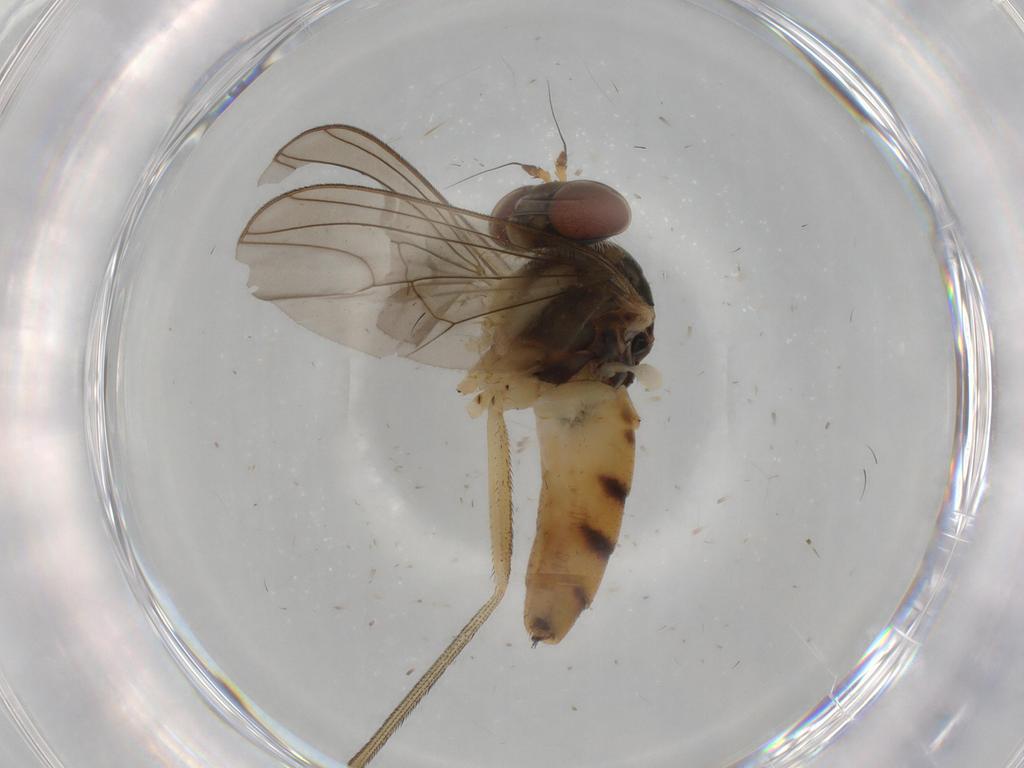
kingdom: Animalia
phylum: Arthropoda
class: Insecta
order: Diptera
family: Dolichopodidae
